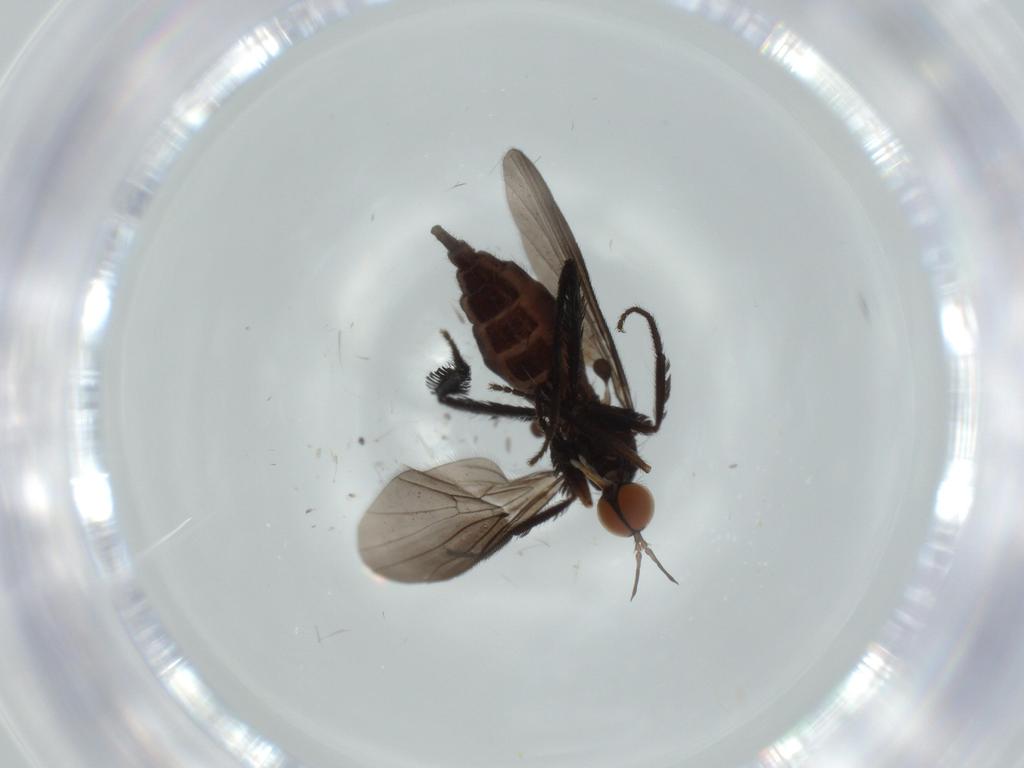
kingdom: Animalia
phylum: Arthropoda
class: Insecta
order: Diptera
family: Empididae
